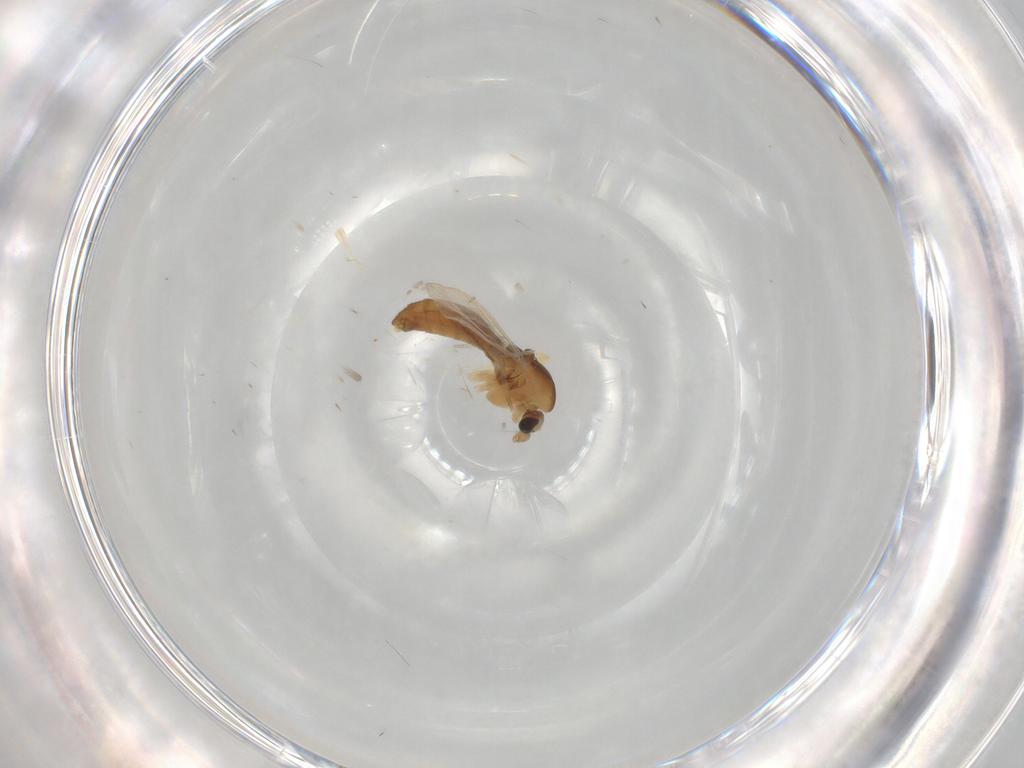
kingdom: Animalia
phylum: Arthropoda
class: Insecta
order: Diptera
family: Chironomidae
